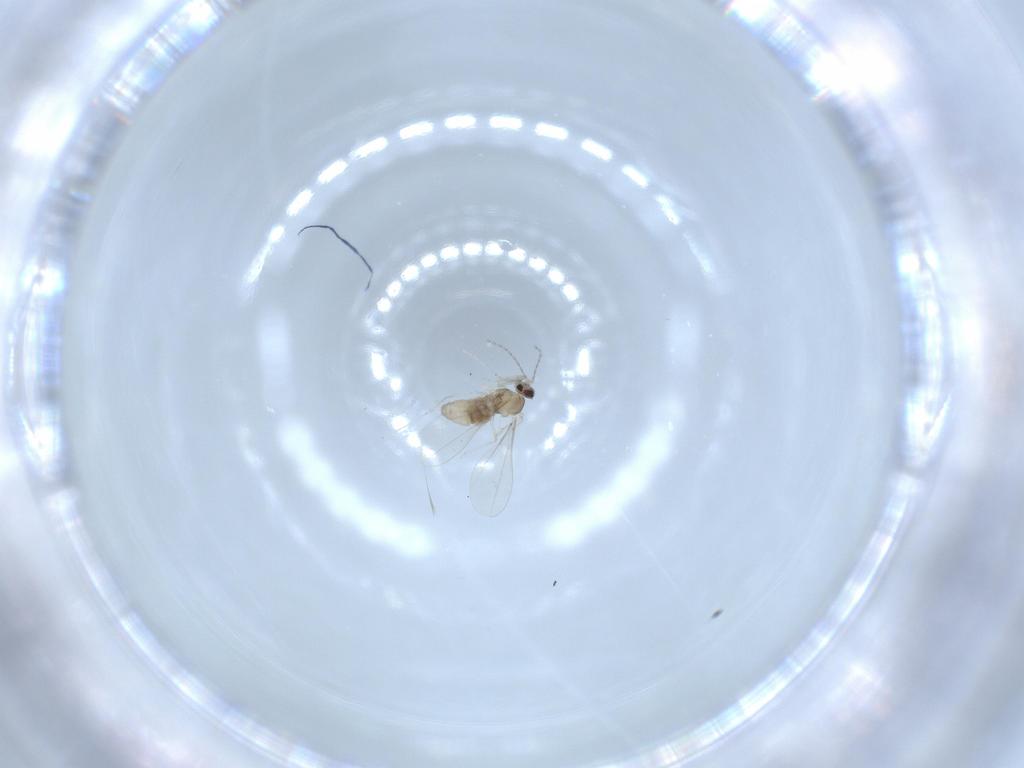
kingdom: Animalia
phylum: Arthropoda
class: Insecta
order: Diptera
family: Cecidomyiidae
